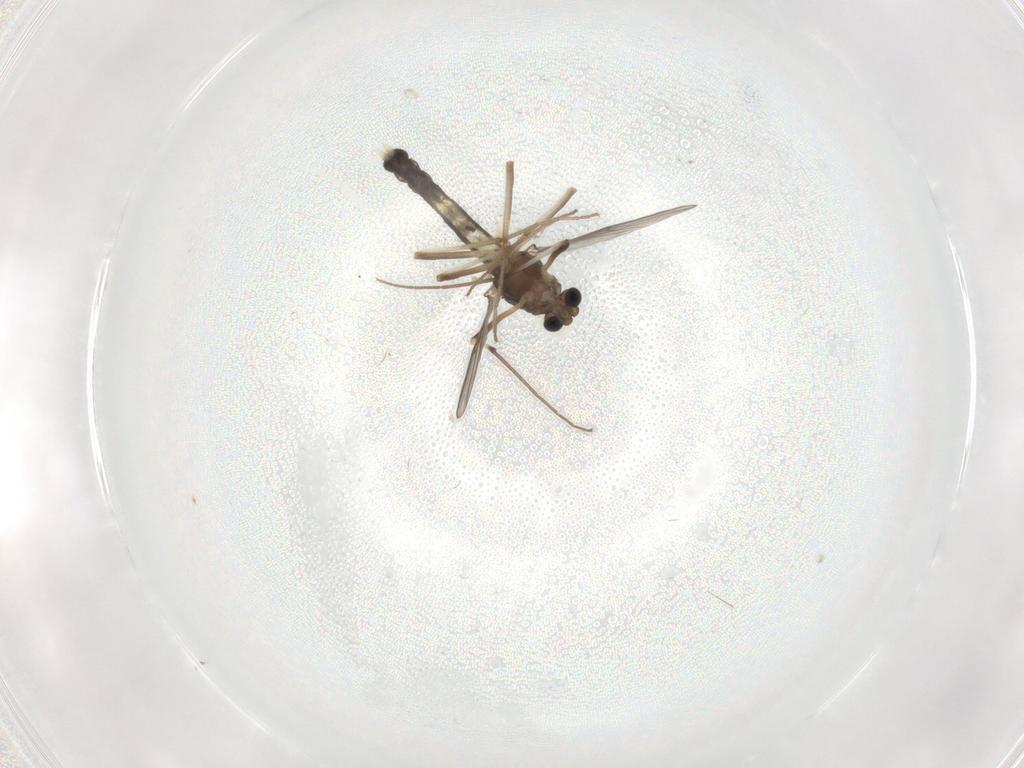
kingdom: Animalia
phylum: Arthropoda
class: Insecta
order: Diptera
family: Chironomidae
